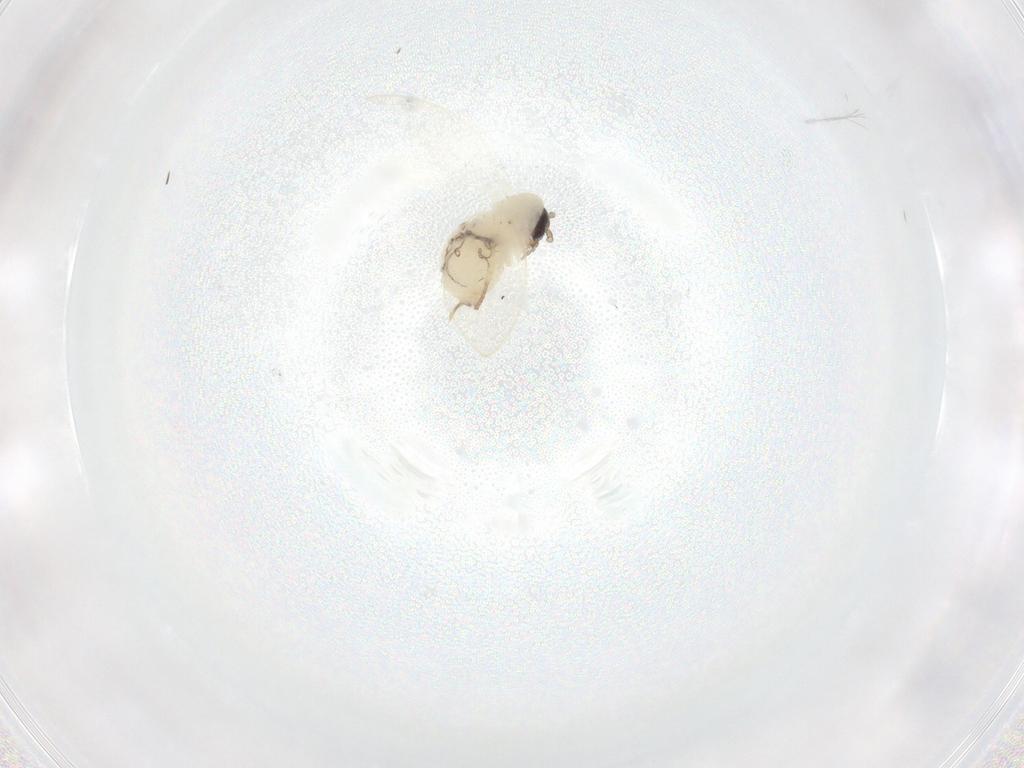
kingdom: Animalia
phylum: Arthropoda
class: Insecta
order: Diptera
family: Psychodidae
